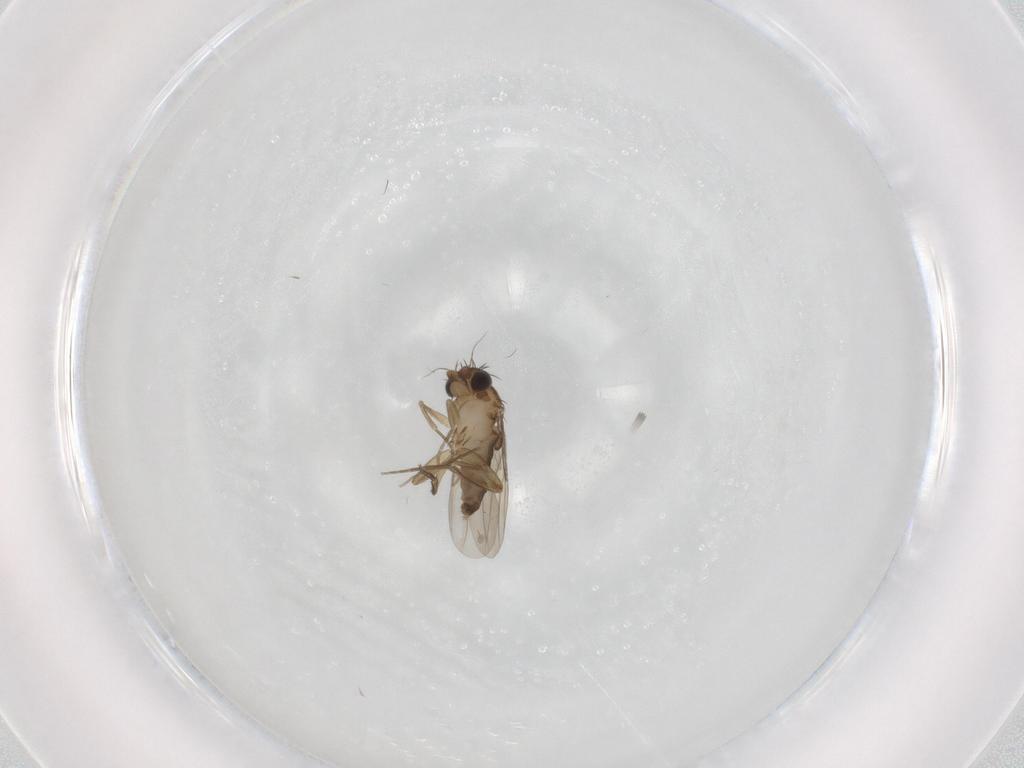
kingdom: Animalia
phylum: Arthropoda
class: Insecta
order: Diptera
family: Phoridae
